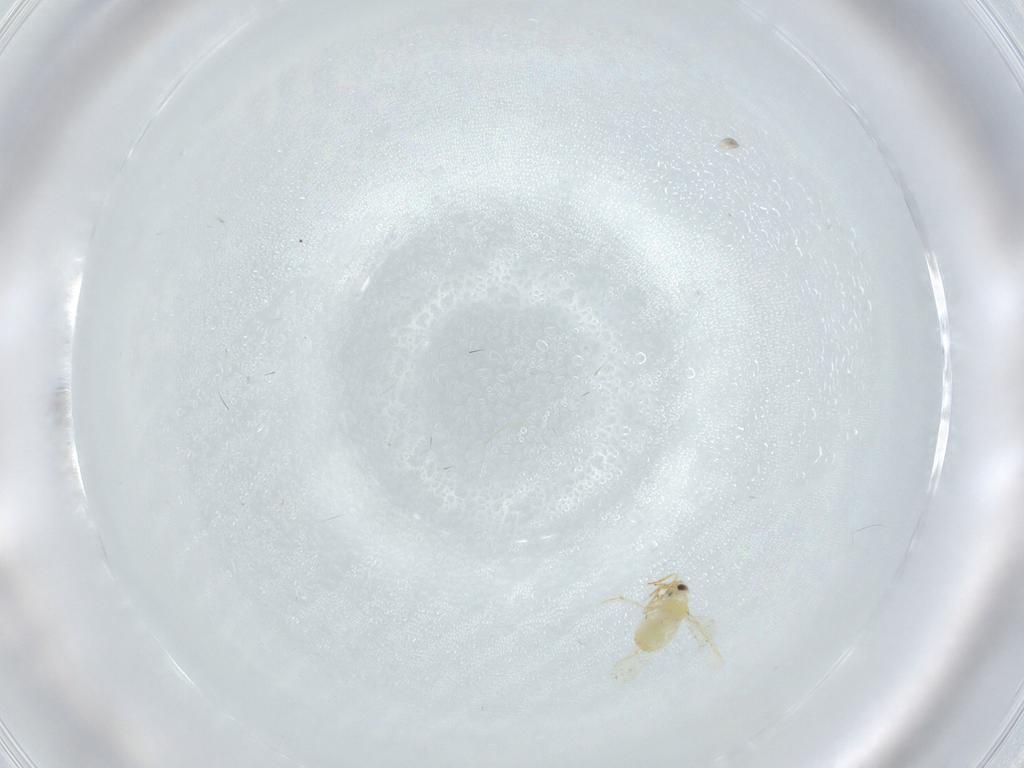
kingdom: Animalia
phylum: Arthropoda
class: Insecta
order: Hemiptera
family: Aleyrodidae
